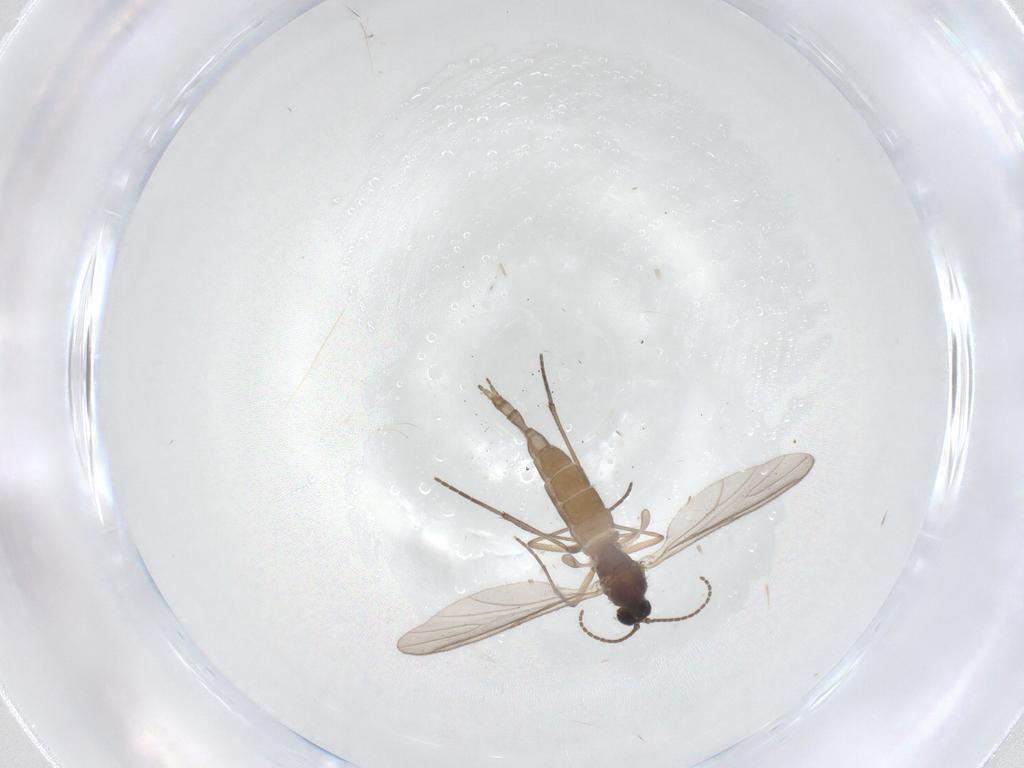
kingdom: Animalia
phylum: Arthropoda
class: Insecta
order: Diptera
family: Sciaridae
